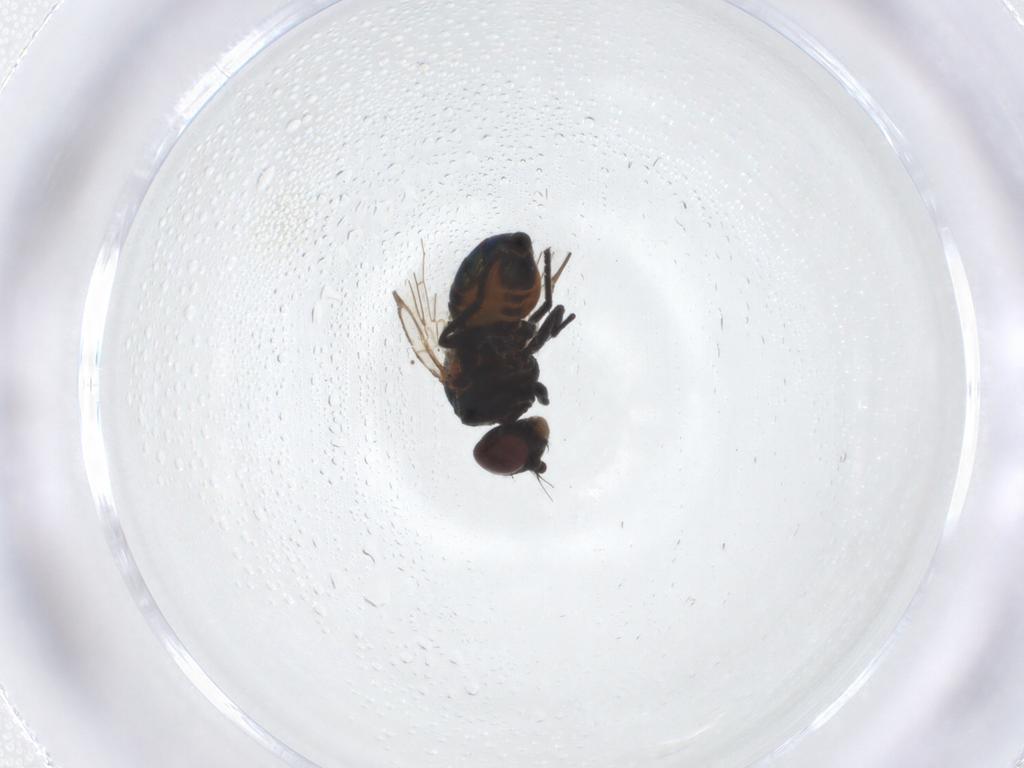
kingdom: Animalia
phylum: Arthropoda
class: Insecta
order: Diptera
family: Agromyzidae
